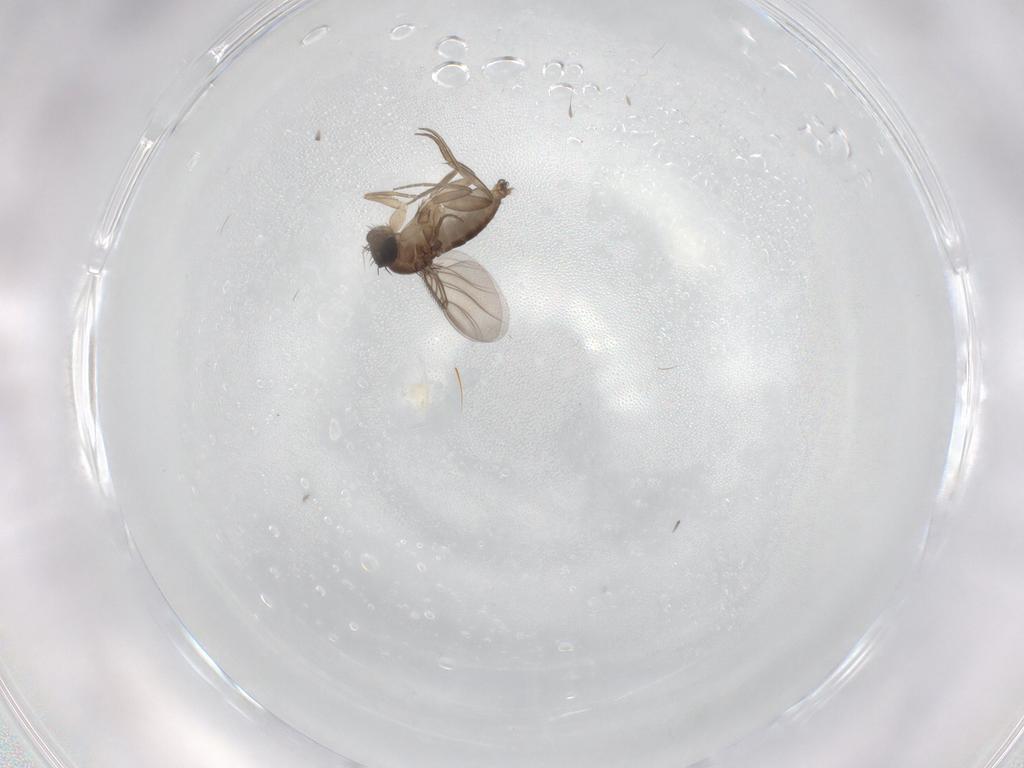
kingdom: Animalia
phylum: Arthropoda
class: Insecta
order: Diptera
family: Phoridae
